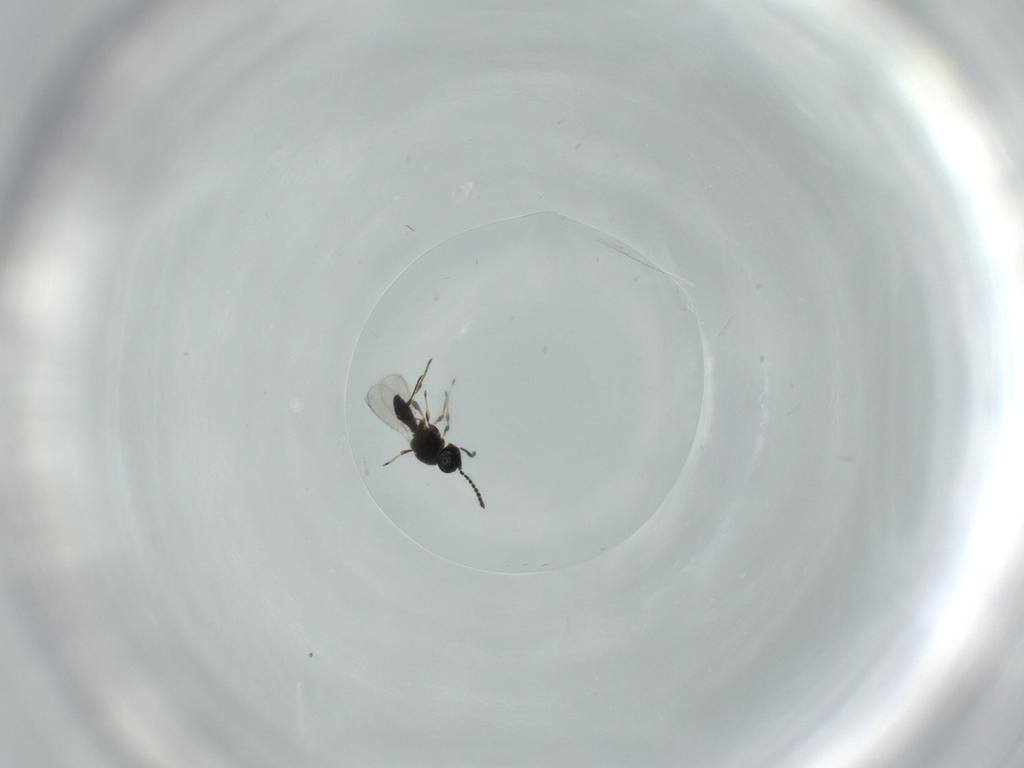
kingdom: Animalia
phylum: Arthropoda
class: Insecta
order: Hymenoptera
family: Platygastridae
